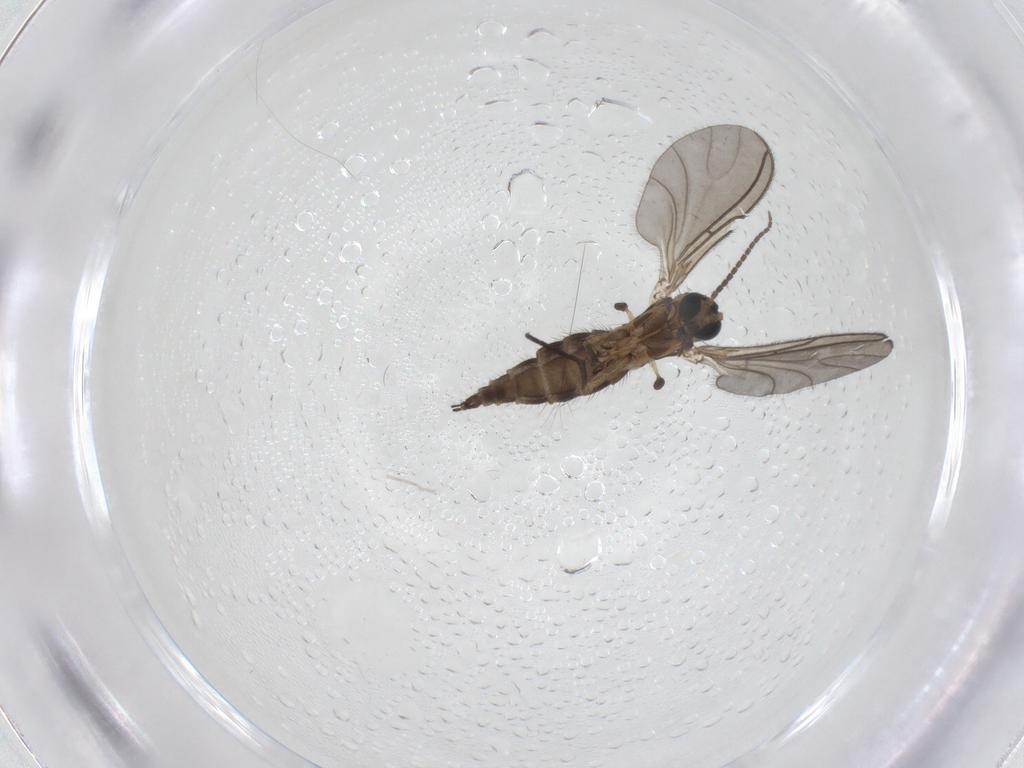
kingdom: Animalia
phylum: Arthropoda
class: Insecta
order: Diptera
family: Sciaridae
